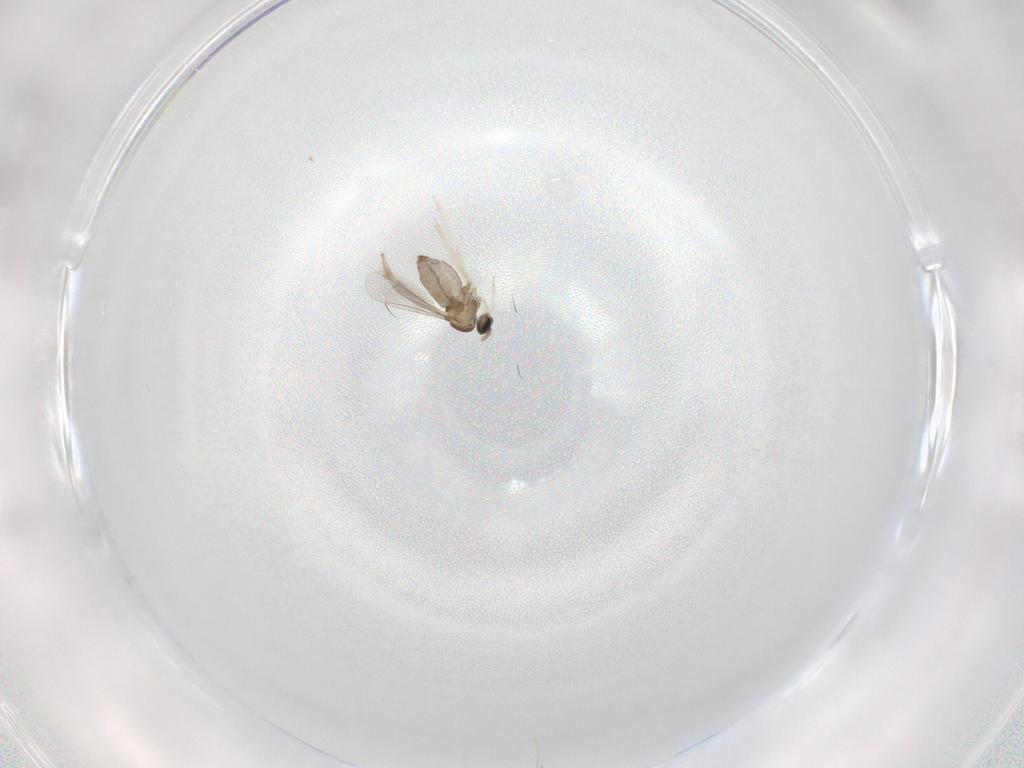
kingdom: Animalia
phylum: Arthropoda
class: Insecta
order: Diptera
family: Cecidomyiidae
